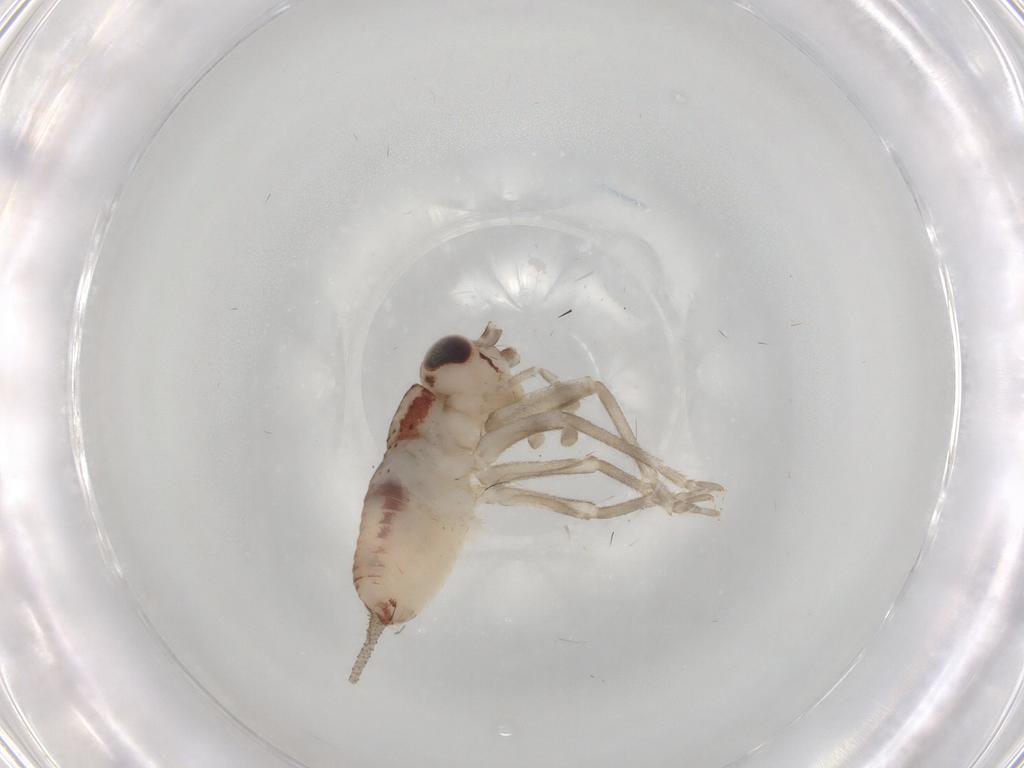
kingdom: Animalia
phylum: Arthropoda
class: Insecta
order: Orthoptera
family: Trigonidiidae
